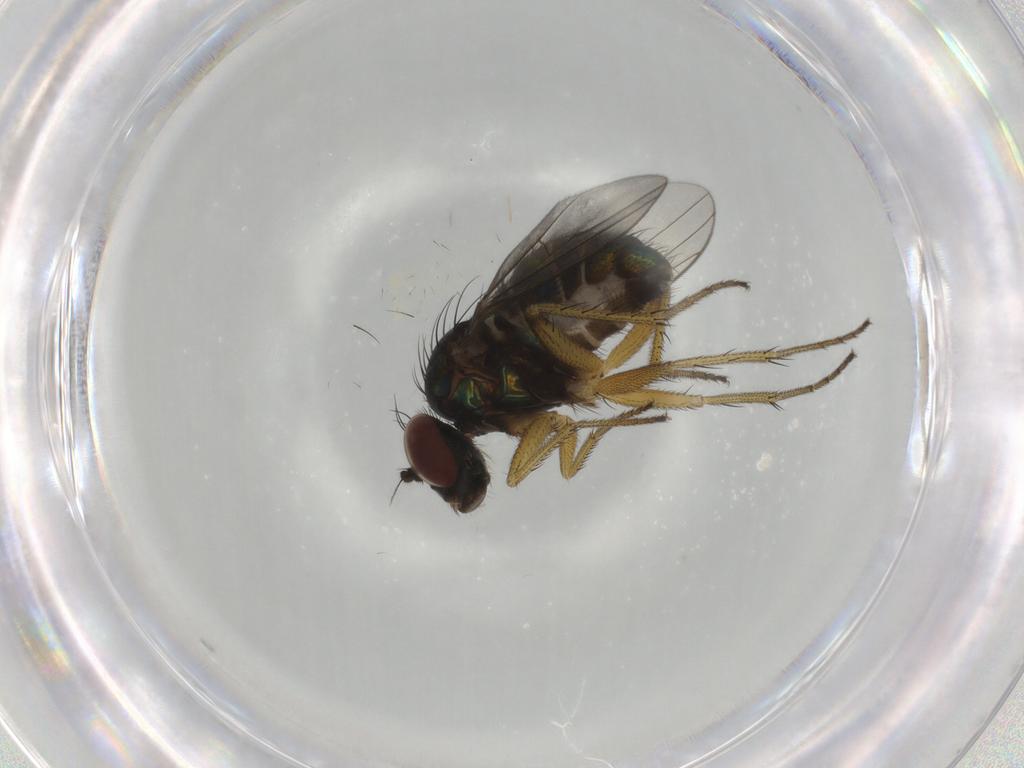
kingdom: Animalia
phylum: Arthropoda
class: Insecta
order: Diptera
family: Dolichopodidae
